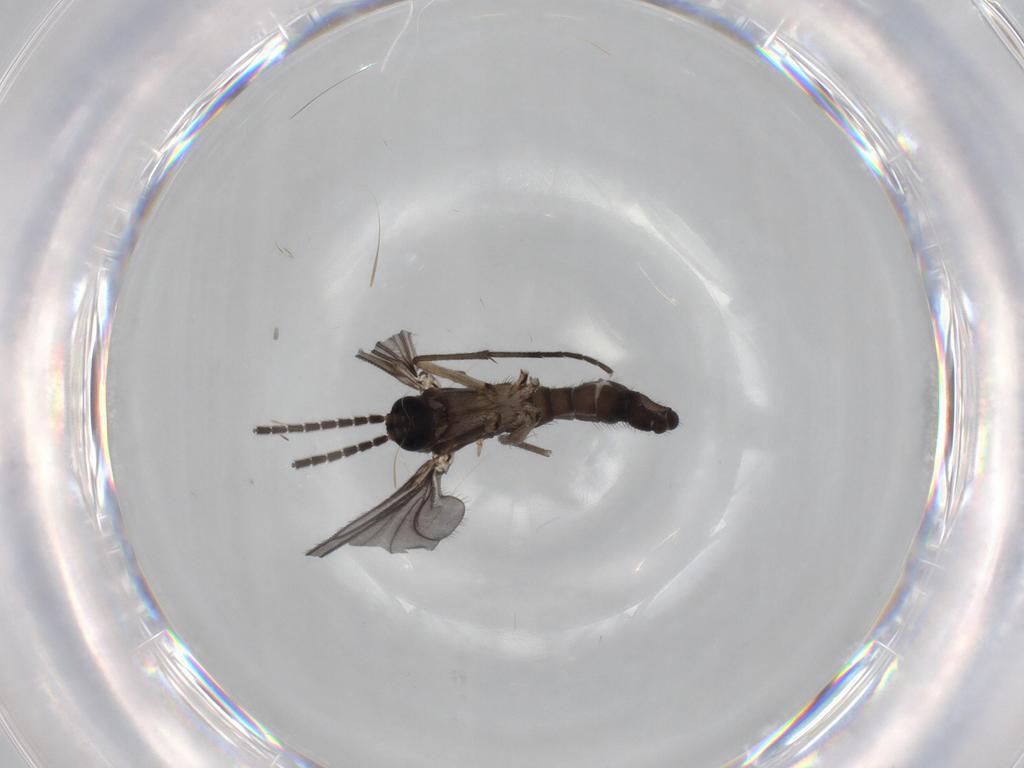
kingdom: Animalia
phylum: Arthropoda
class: Insecta
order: Diptera
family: Sciaridae
